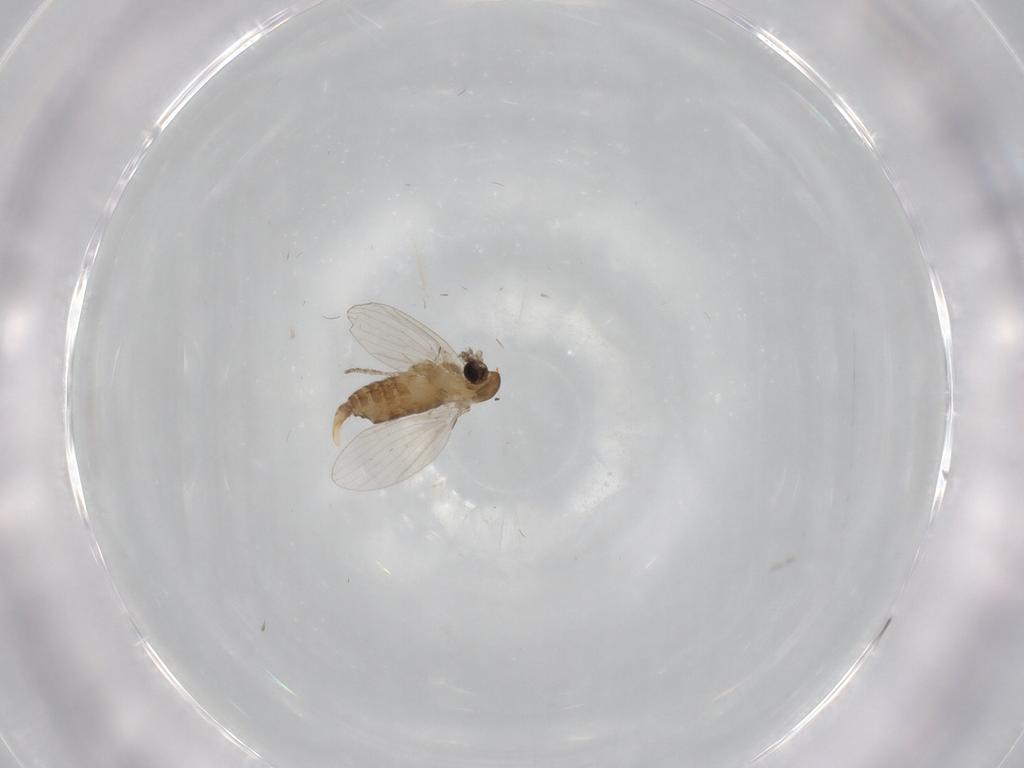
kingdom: Animalia
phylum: Arthropoda
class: Insecta
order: Diptera
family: Psychodidae
